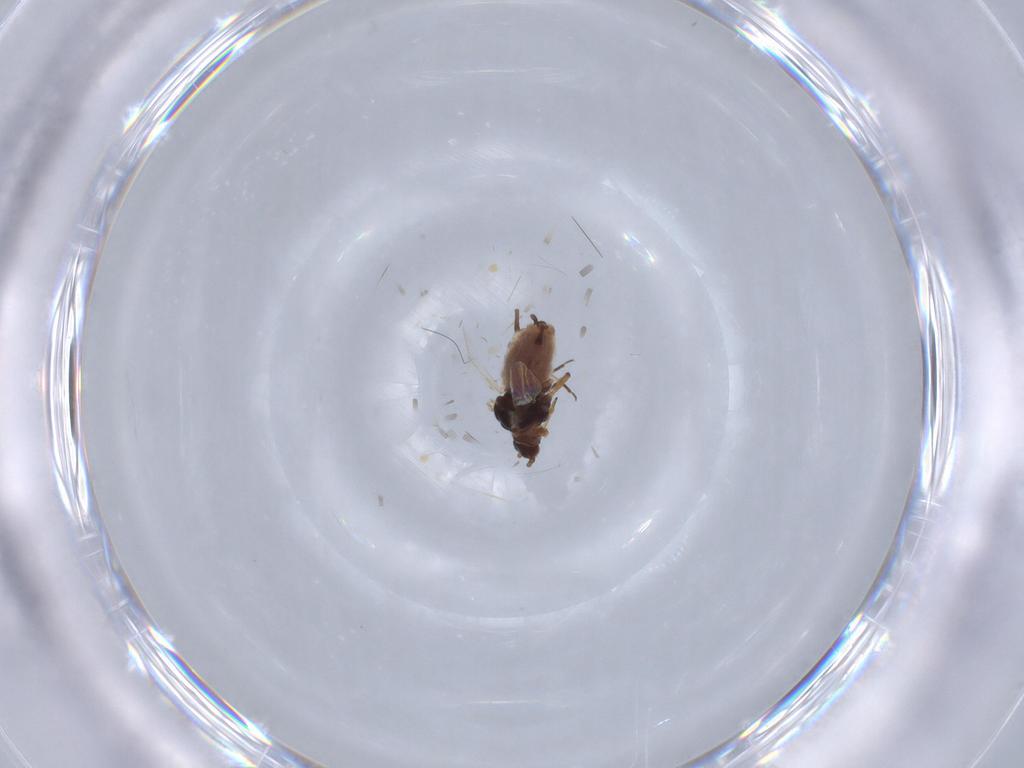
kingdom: Animalia
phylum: Arthropoda
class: Insecta
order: Hemiptera
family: Aphididae
